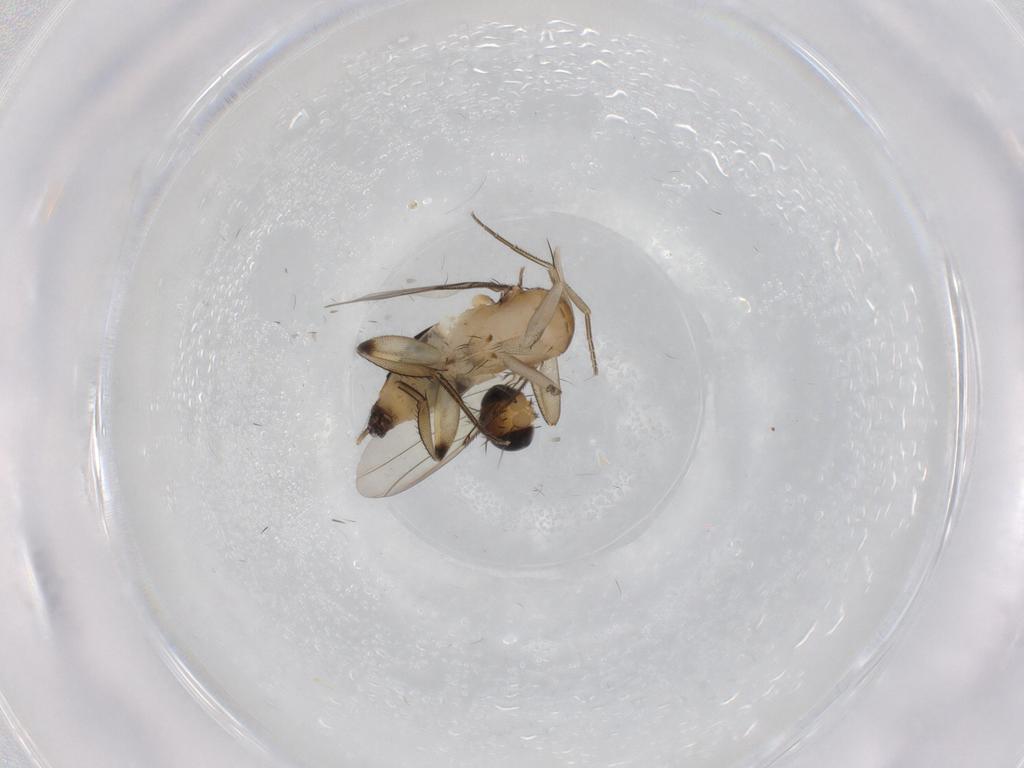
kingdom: Animalia
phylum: Arthropoda
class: Insecta
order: Diptera
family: Phoridae
